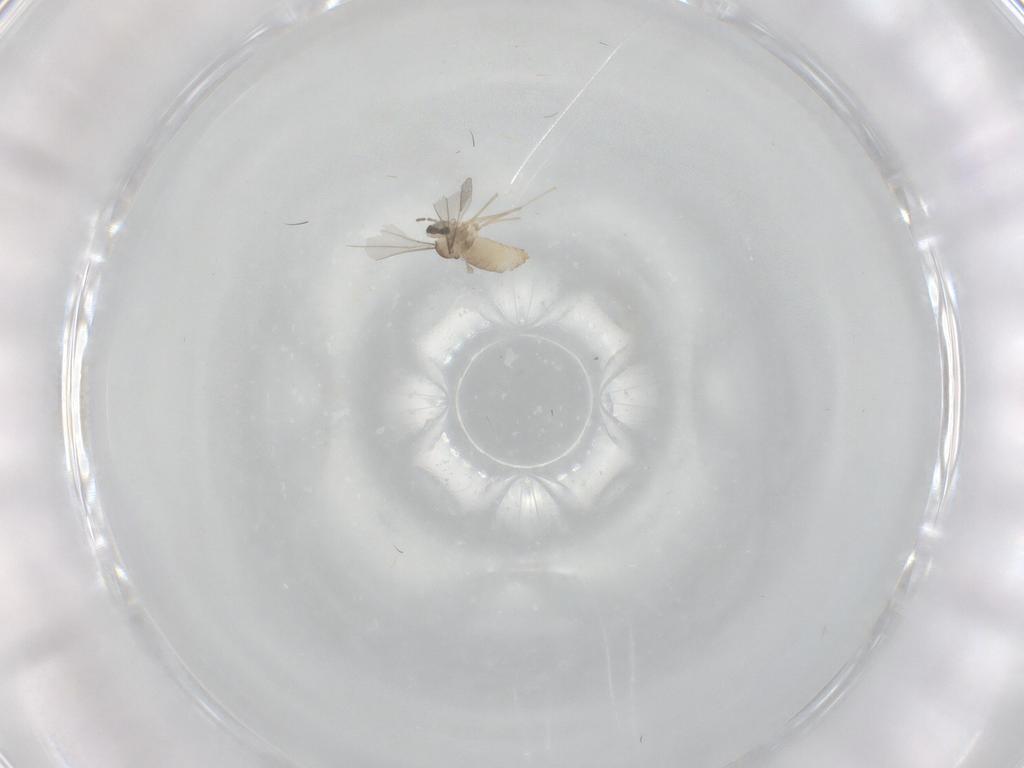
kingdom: Animalia
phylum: Arthropoda
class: Insecta
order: Diptera
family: Cecidomyiidae
